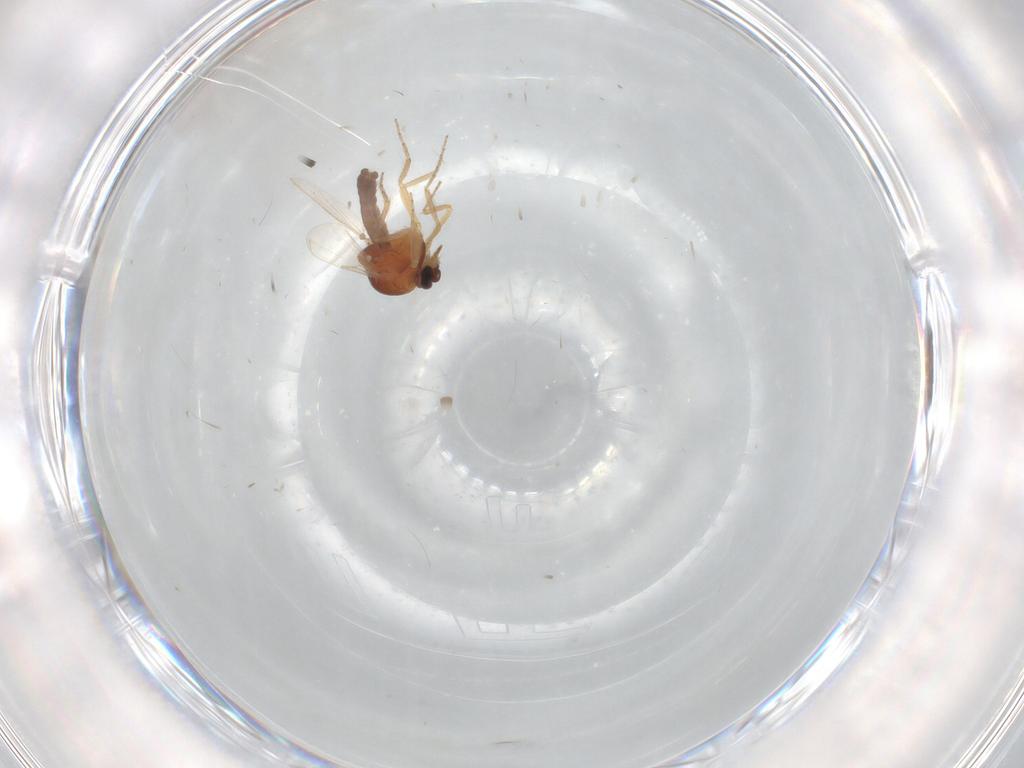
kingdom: Animalia
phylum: Arthropoda
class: Insecta
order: Diptera
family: Ceratopogonidae
